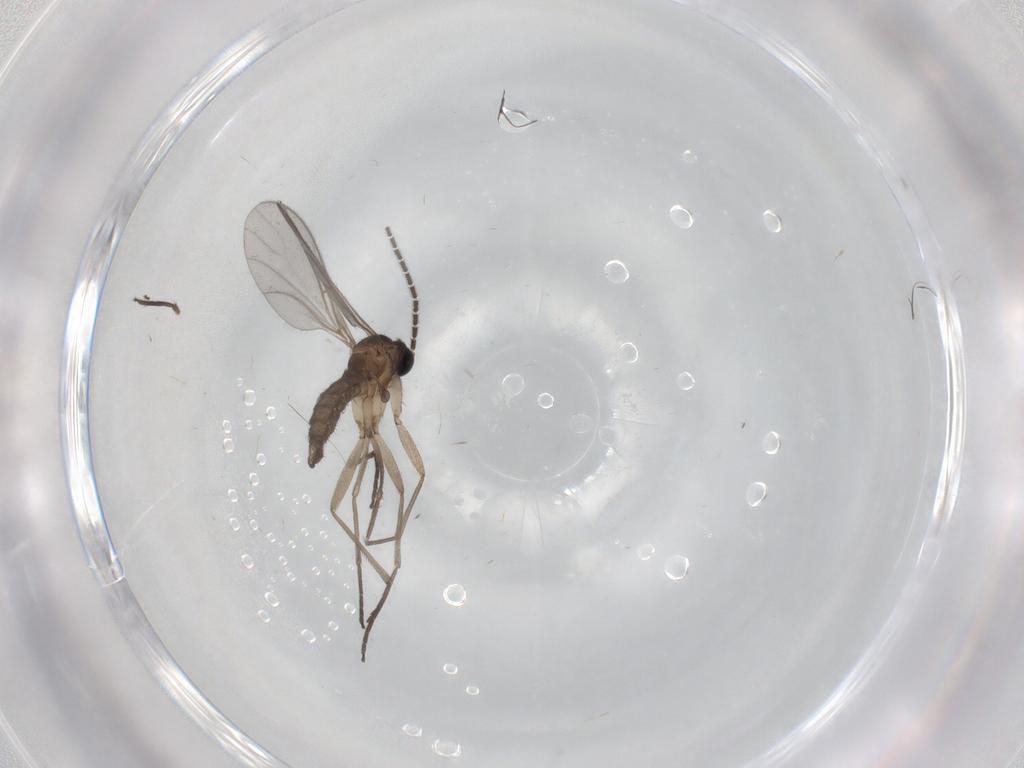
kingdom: Animalia
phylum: Arthropoda
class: Insecta
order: Diptera
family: Sciaridae
